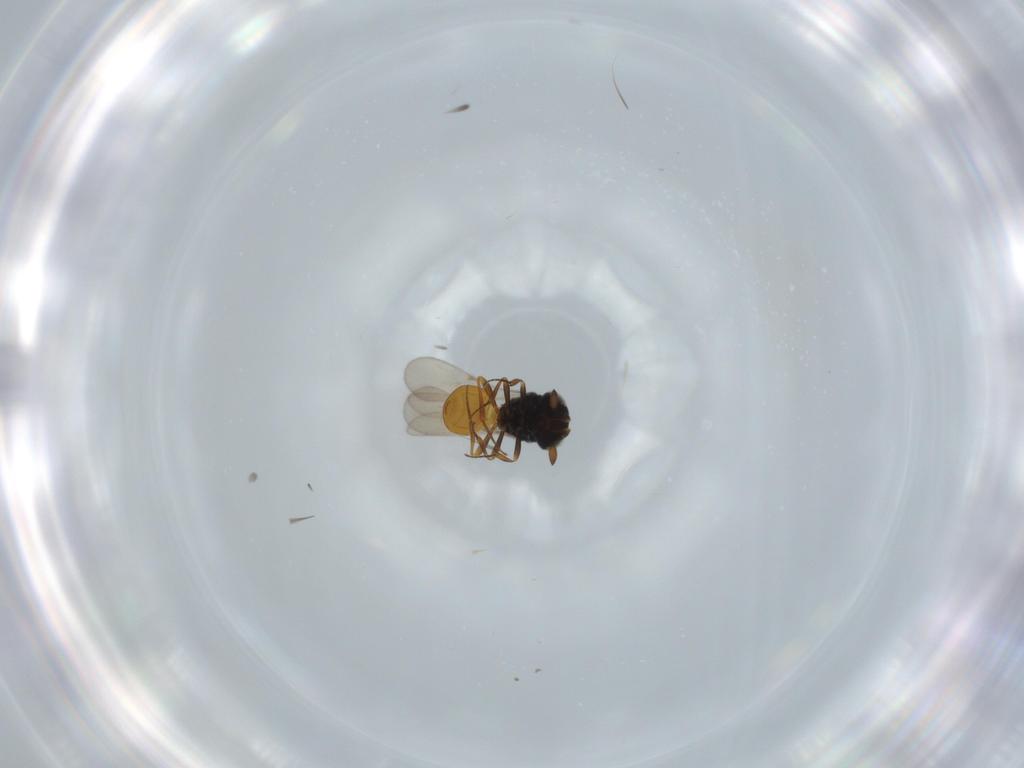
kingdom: Animalia
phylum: Arthropoda
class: Insecta
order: Hymenoptera
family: Scelionidae
